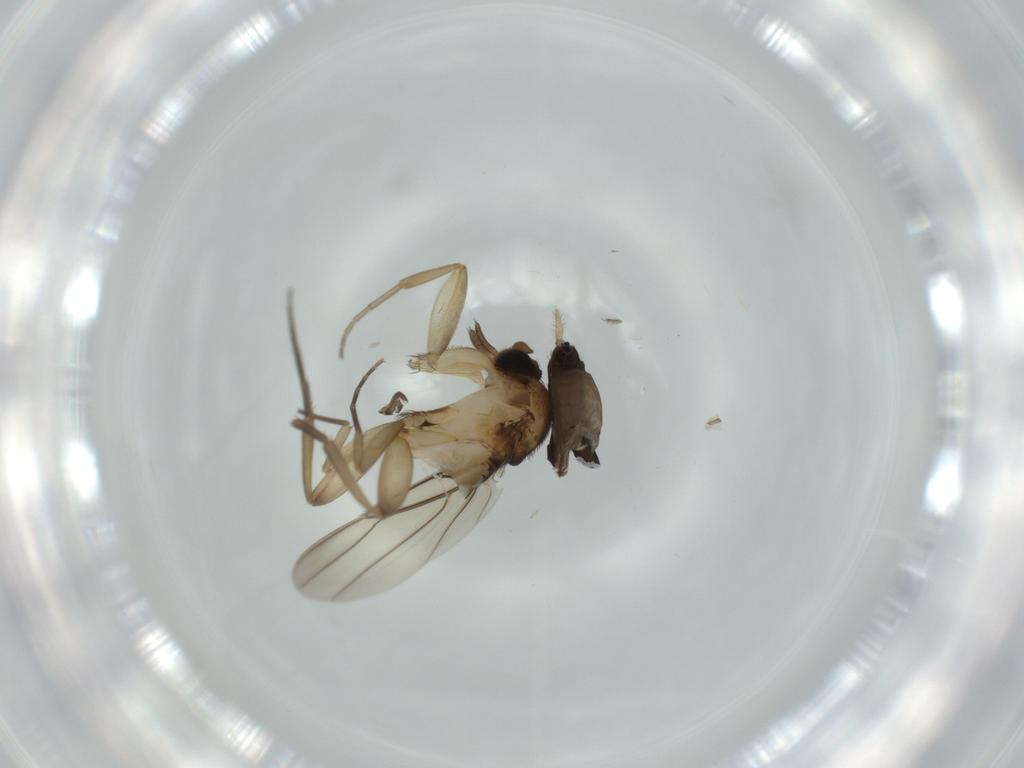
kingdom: Animalia
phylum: Arthropoda
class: Insecta
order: Diptera
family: Phoridae
